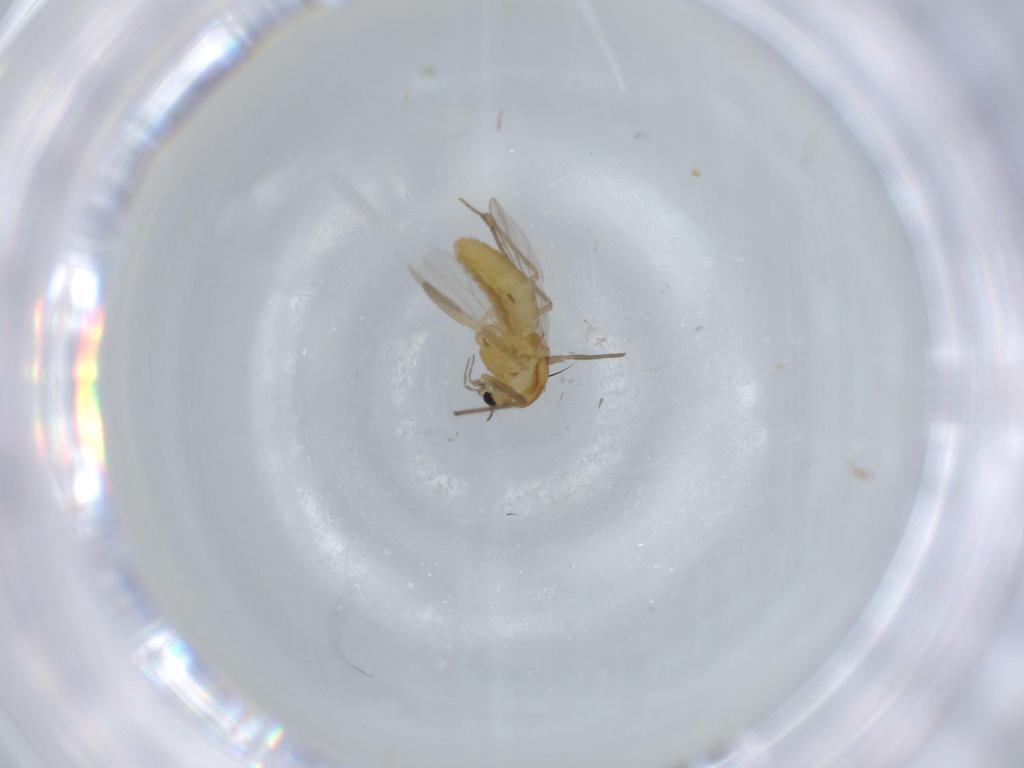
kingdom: Animalia
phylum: Arthropoda
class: Insecta
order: Diptera
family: Chironomidae
